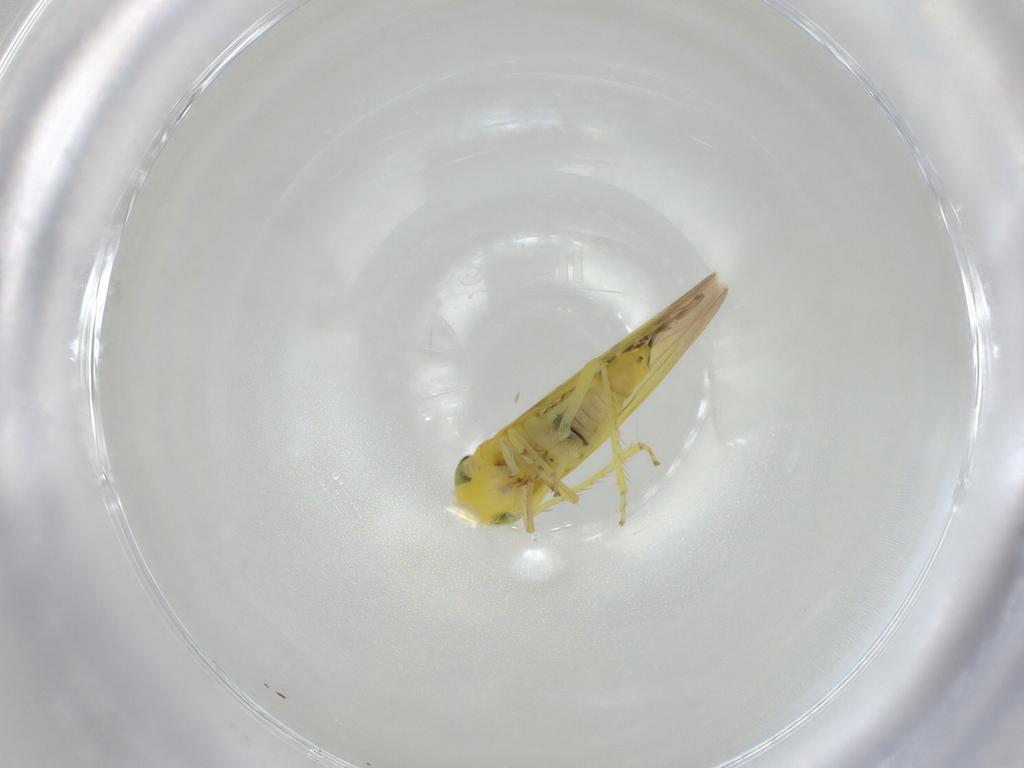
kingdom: Animalia
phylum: Arthropoda
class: Insecta
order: Hemiptera
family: Cicadellidae
